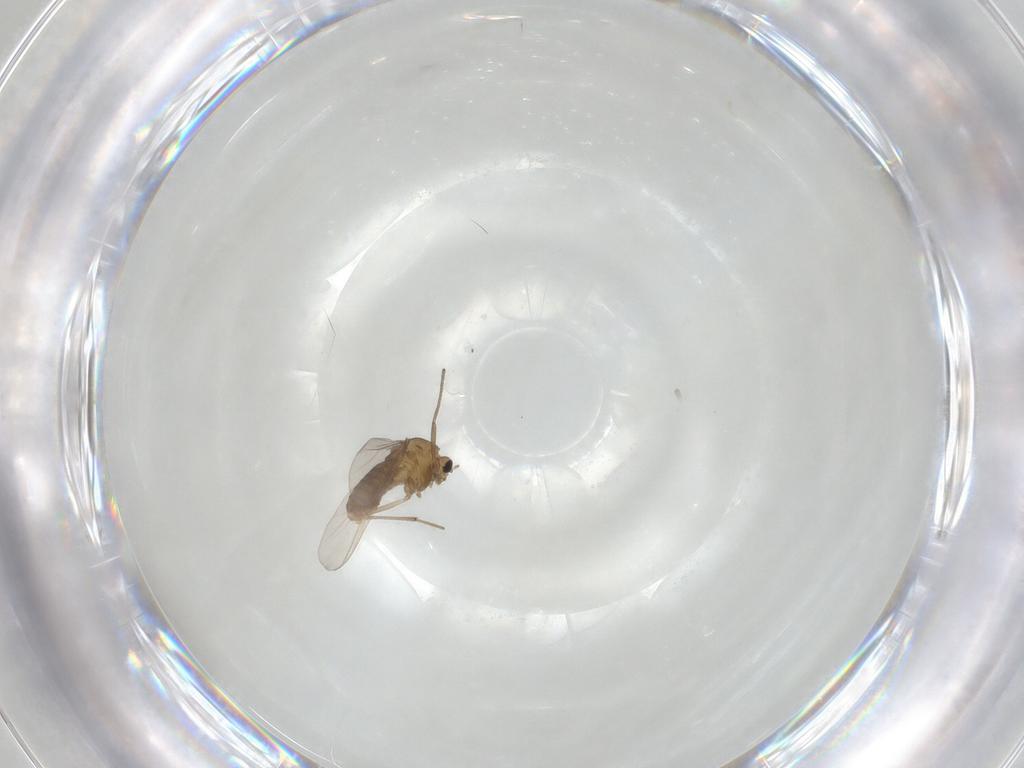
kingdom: Animalia
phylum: Arthropoda
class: Insecta
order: Diptera
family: Chironomidae
